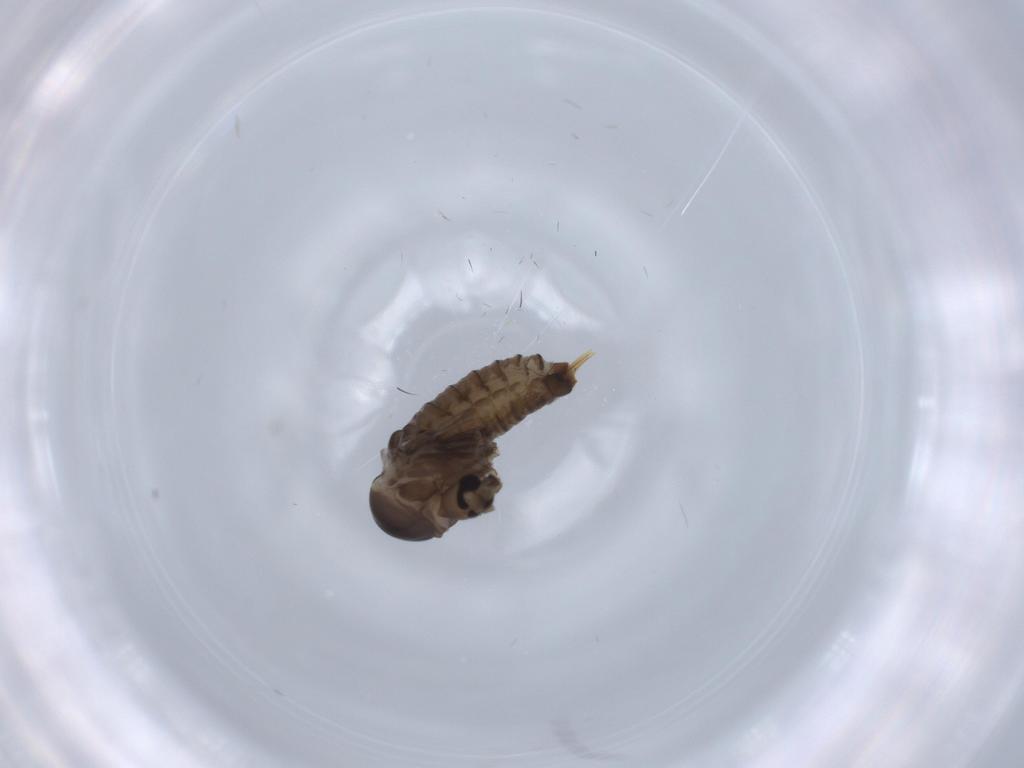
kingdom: Animalia
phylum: Arthropoda
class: Insecta
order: Diptera
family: Psychodidae
